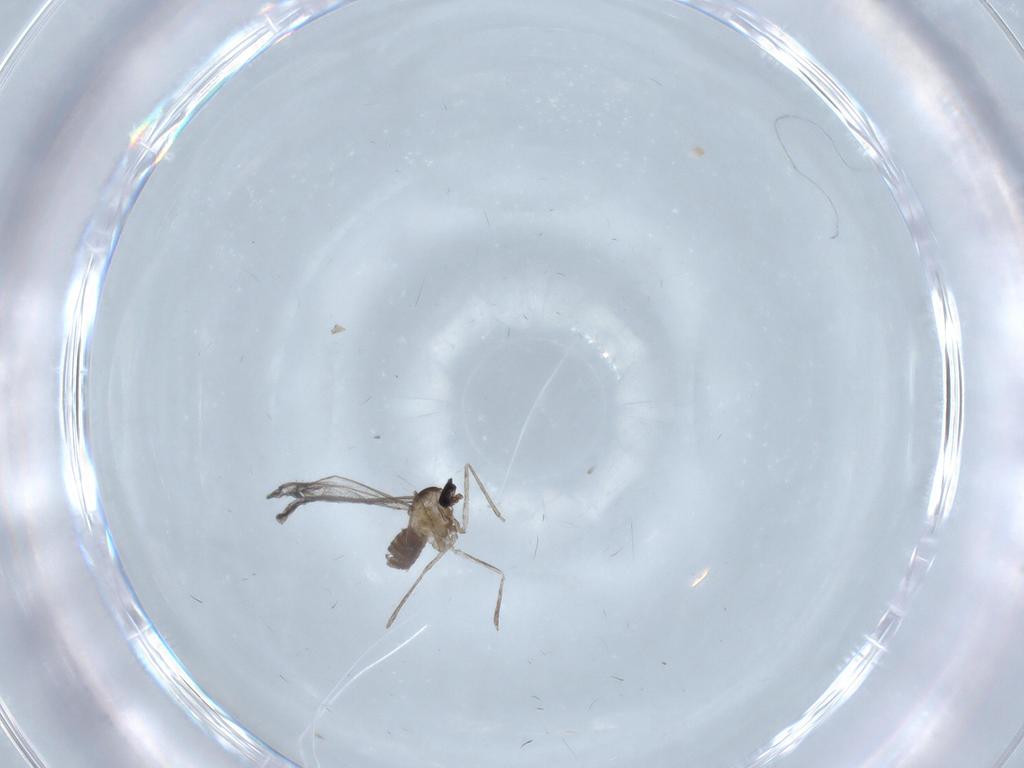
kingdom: Animalia
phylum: Arthropoda
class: Insecta
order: Diptera
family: Cecidomyiidae
